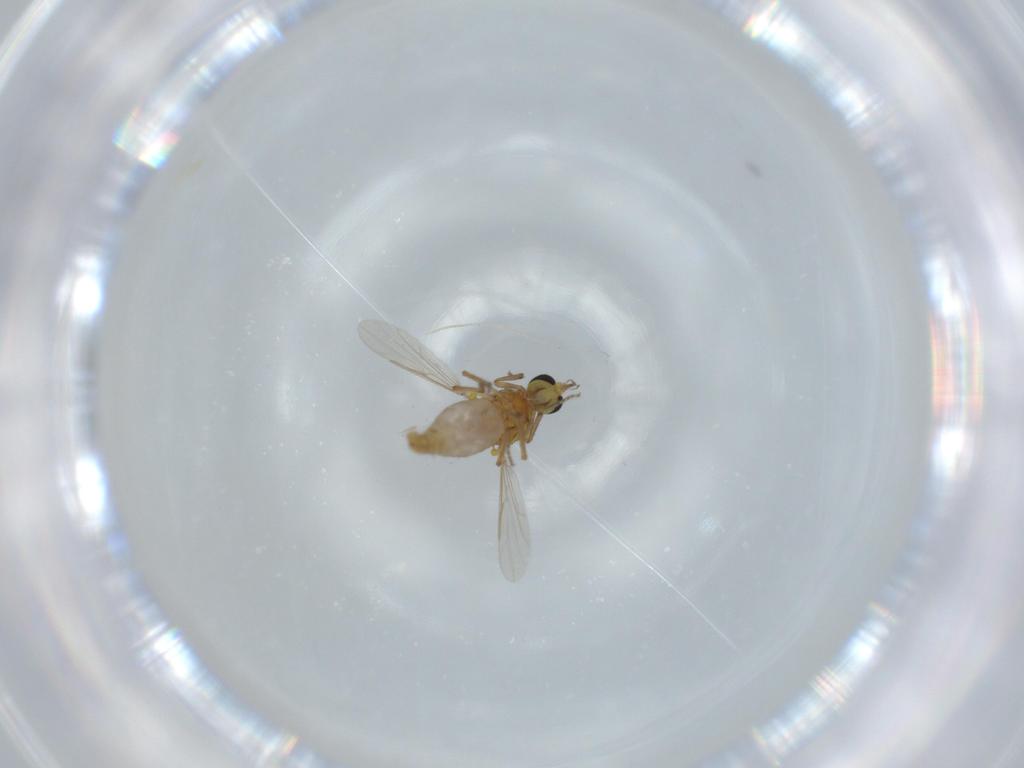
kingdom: Animalia
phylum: Arthropoda
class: Insecta
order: Diptera
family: Ceratopogonidae
